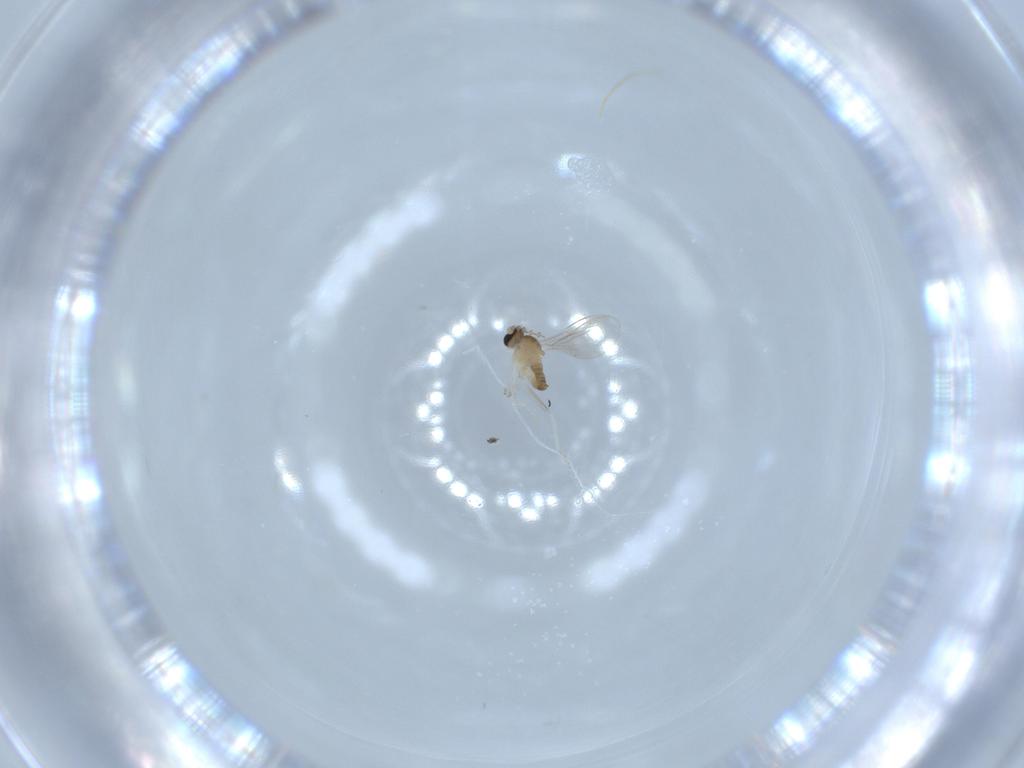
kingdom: Animalia
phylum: Arthropoda
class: Insecta
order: Diptera
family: Cecidomyiidae
